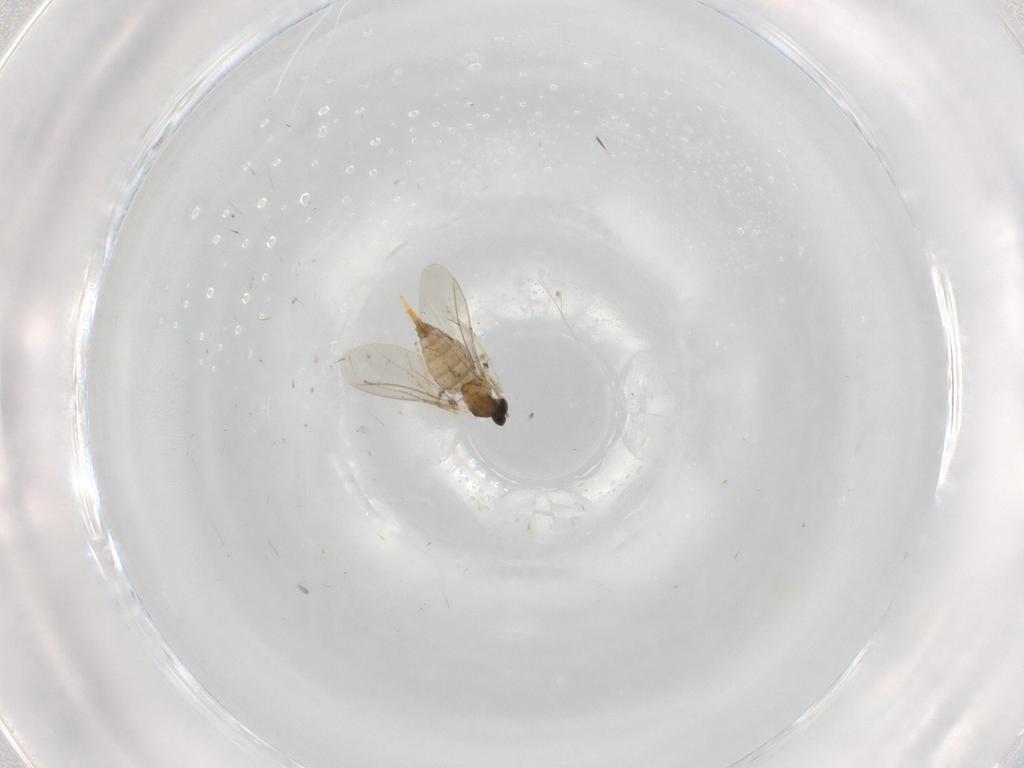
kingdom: Animalia
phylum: Arthropoda
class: Insecta
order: Diptera
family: Cecidomyiidae
